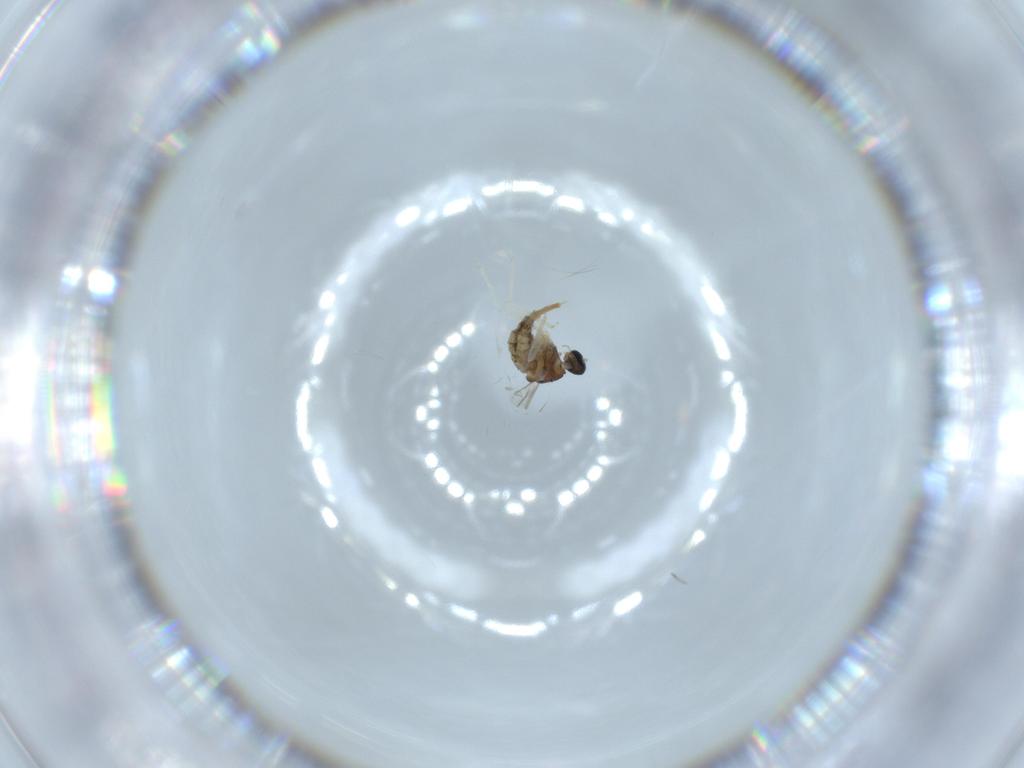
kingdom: Animalia
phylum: Arthropoda
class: Insecta
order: Diptera
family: Cecidomyiidae
